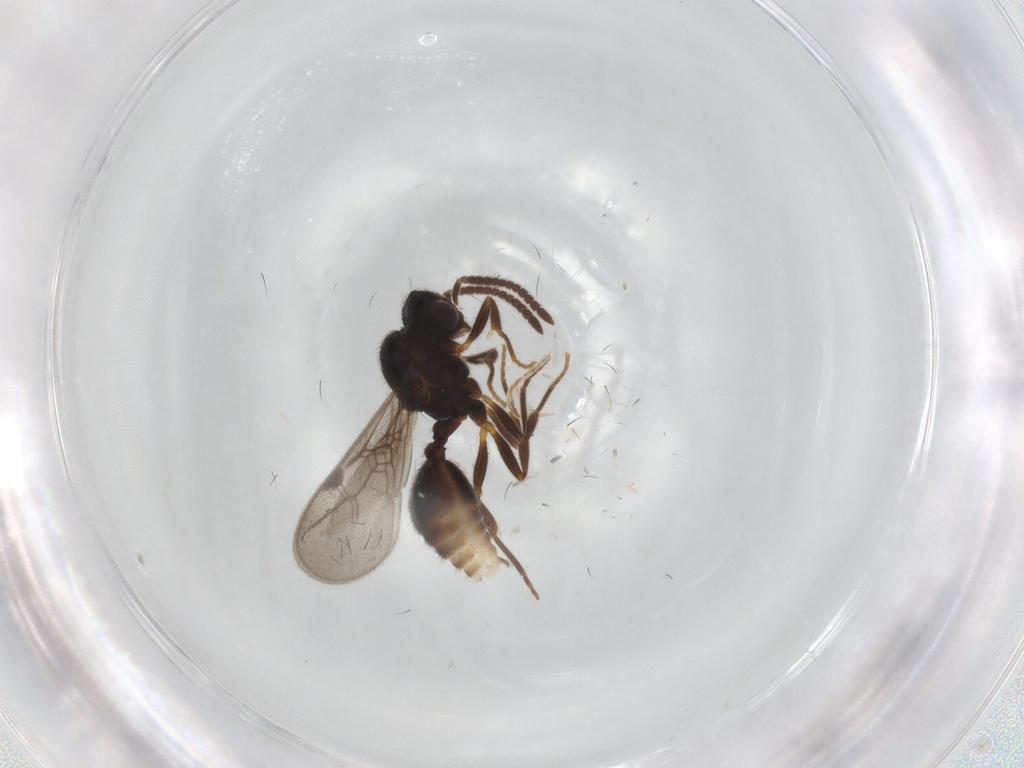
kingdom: Animalia
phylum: Arthropoda
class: Insecta
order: Hymenoptera
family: Formicidae
